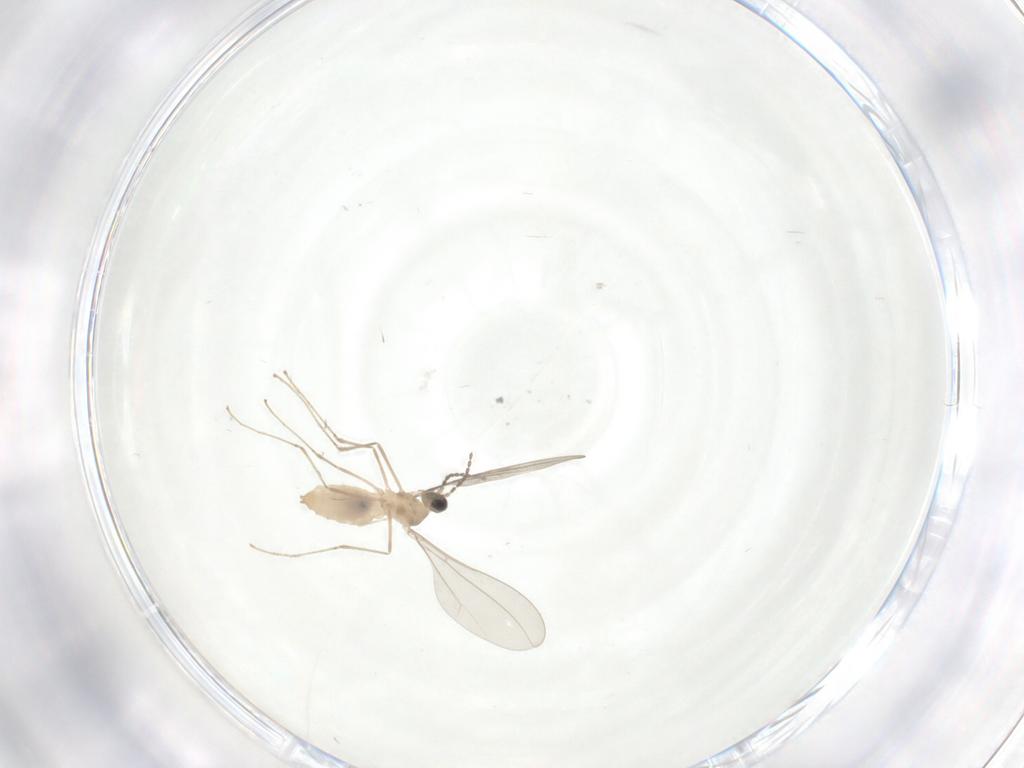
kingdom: Animalia
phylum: Arthropoda
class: Insecta
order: Diptera
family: Cecidomyiidae
